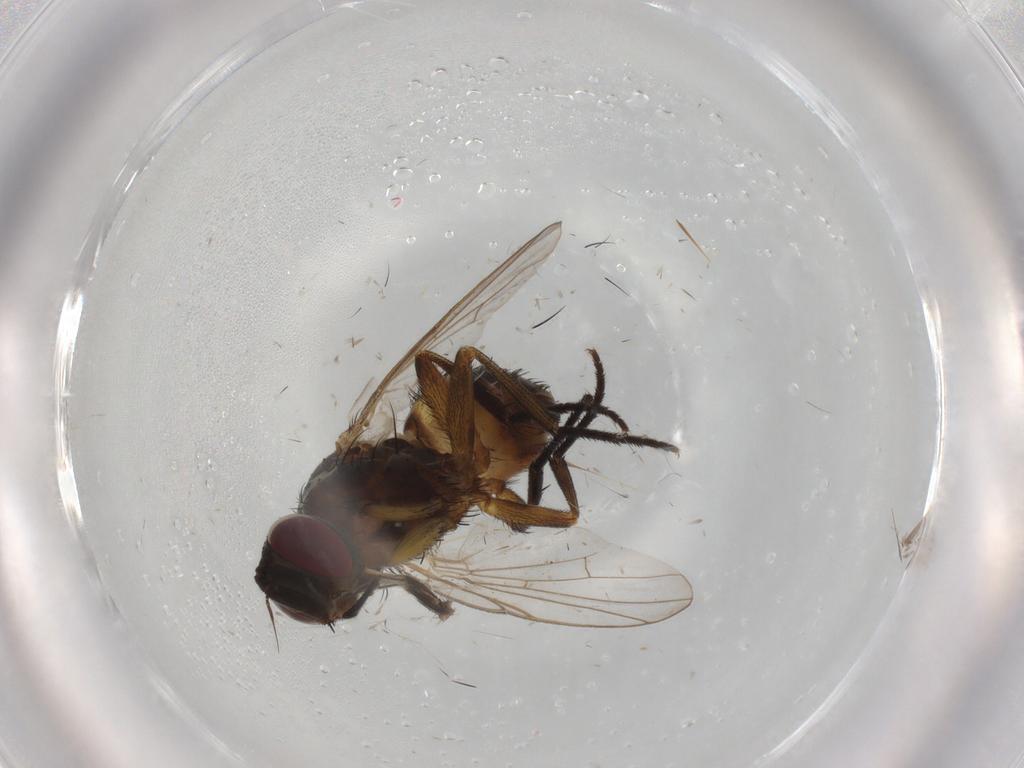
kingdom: Animalia
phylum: Arthropoda
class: Insecta
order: Diptera
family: Muscidae
